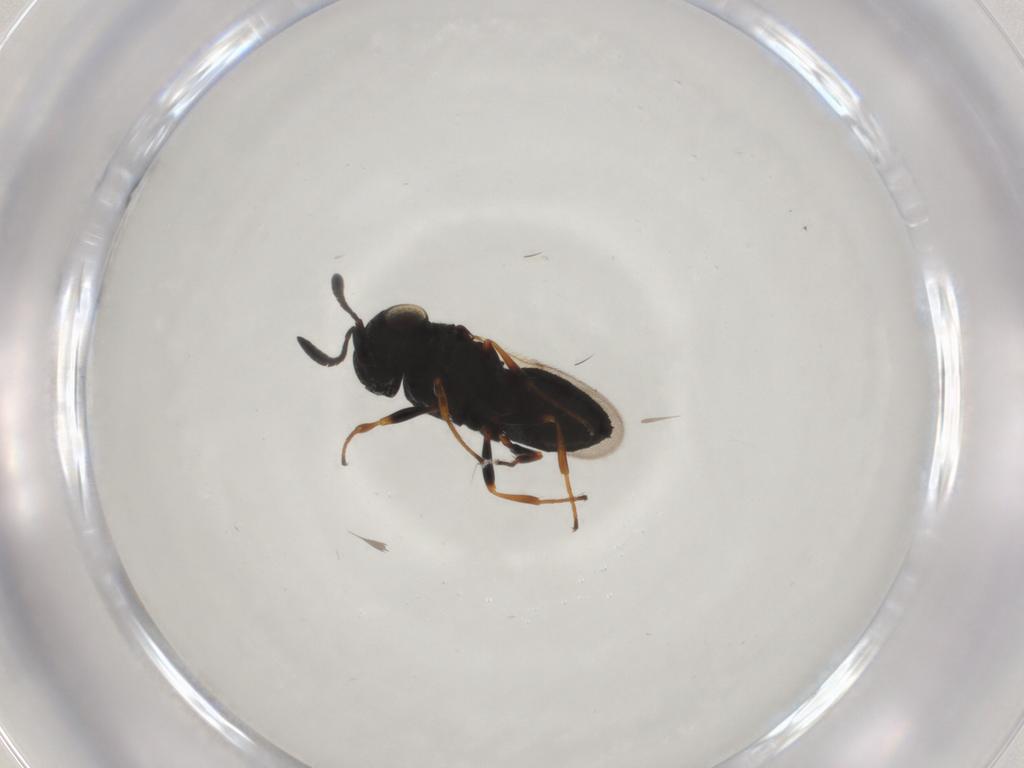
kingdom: Animalia
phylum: Arthropoda
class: Insecta
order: Hymenoptera
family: Scelionidae
